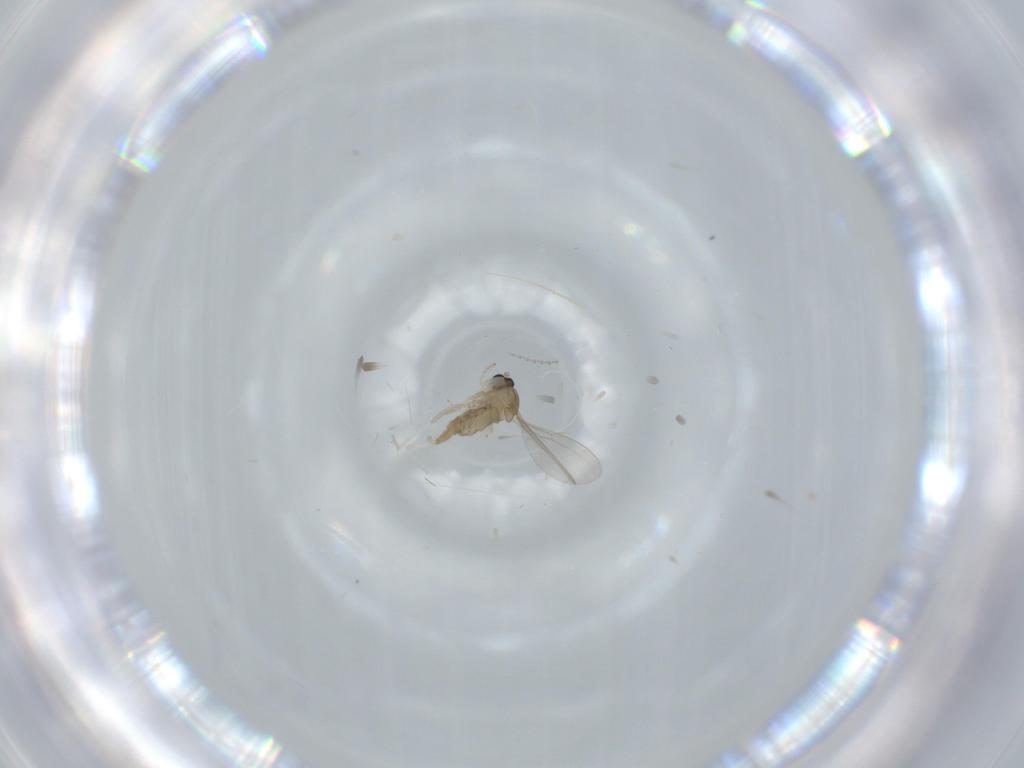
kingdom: Animalia
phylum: Arthropoda
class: Insecta
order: Diptera
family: Cecidomyiidae
